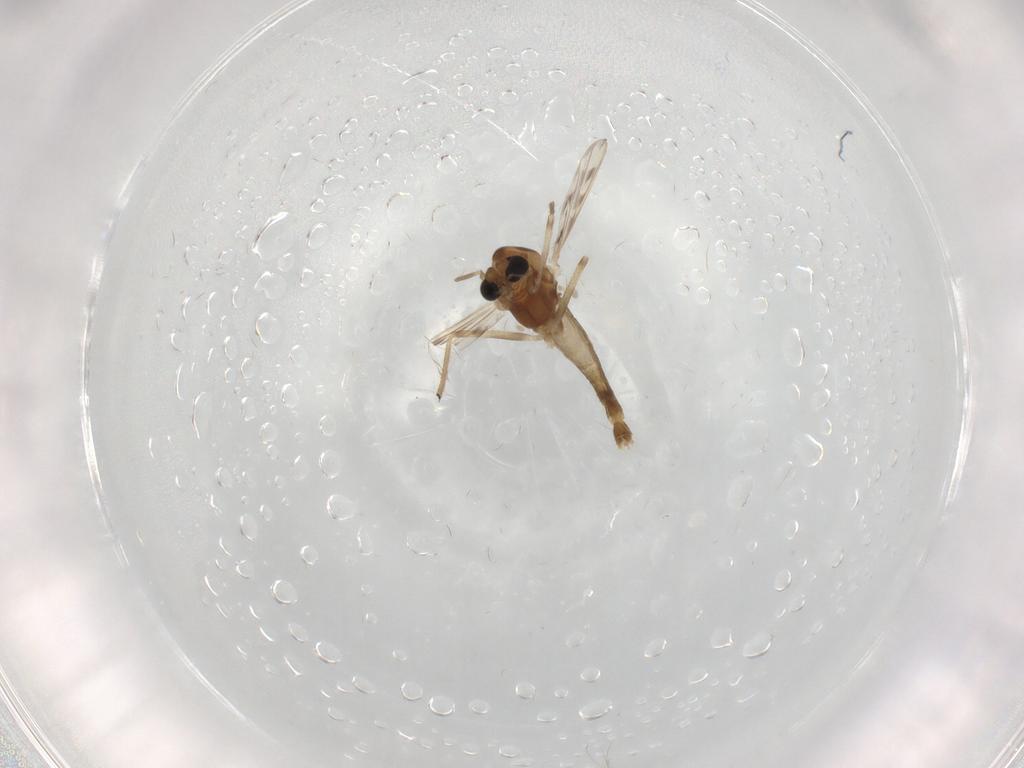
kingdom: Animalia
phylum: Arthropoda
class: Insecta
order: Diptera
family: Chironomidae
